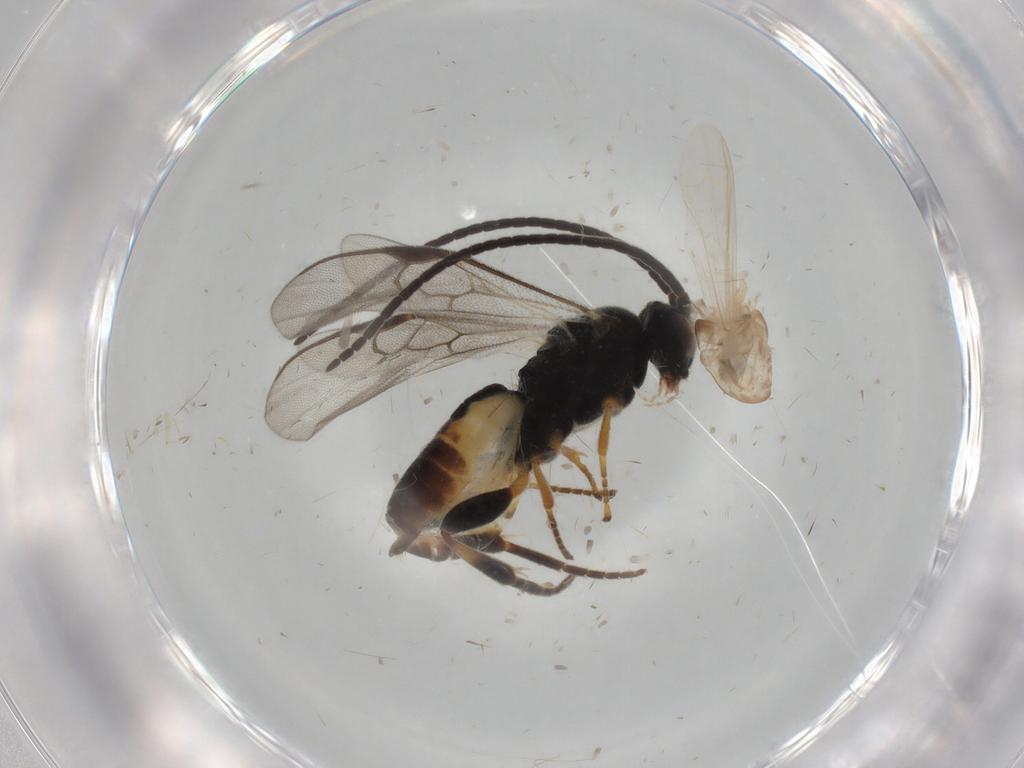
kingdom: Animalia
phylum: Arthropoda
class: Insecta
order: Hymenoptera
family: Braconidae
